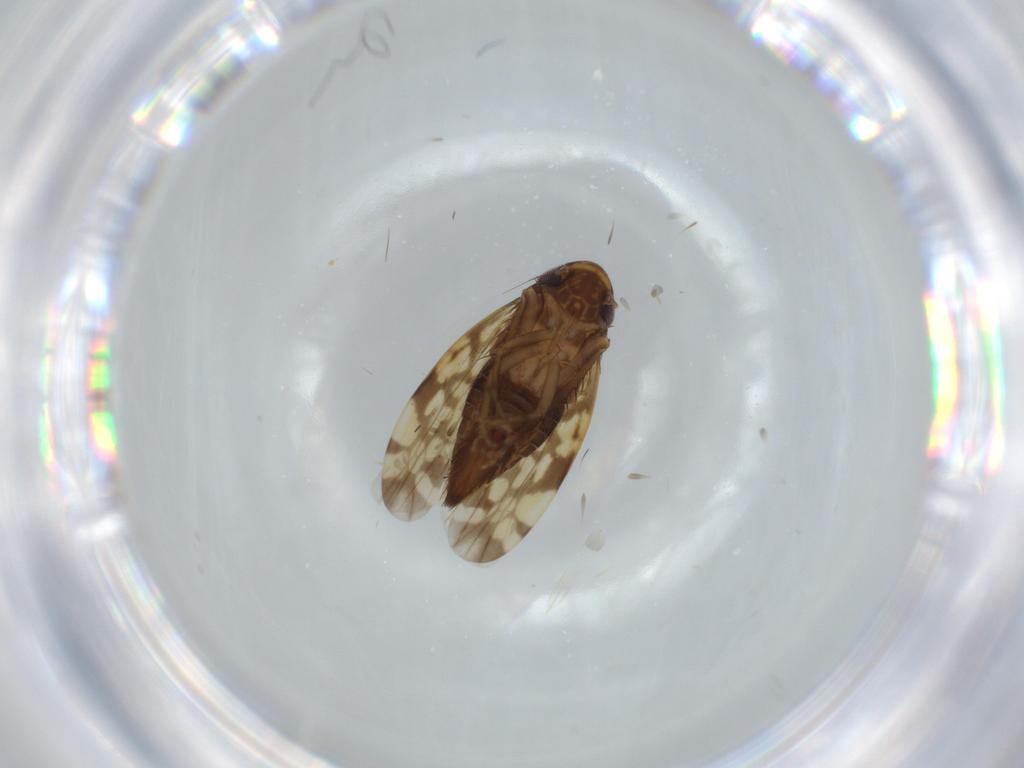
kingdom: Animalia
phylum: Arthropoda
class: Insecta
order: Hemiptera
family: Cicadellidae
